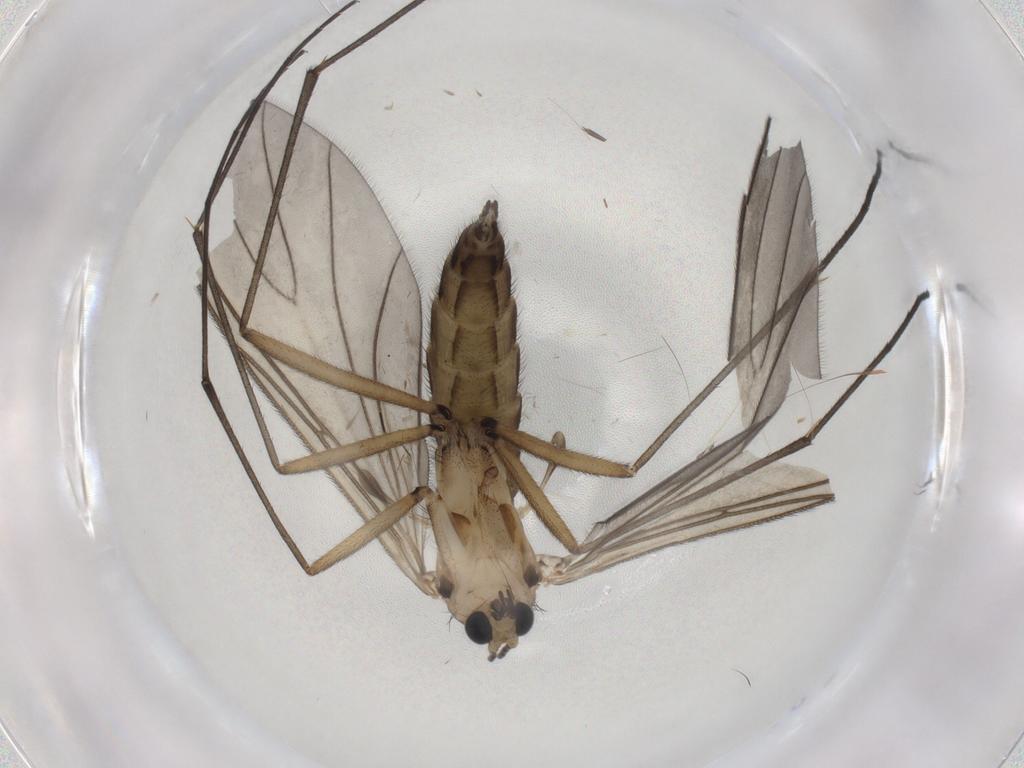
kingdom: Animalia
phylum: Arthropoda
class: Insecta
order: Diptera
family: Sciaridae
